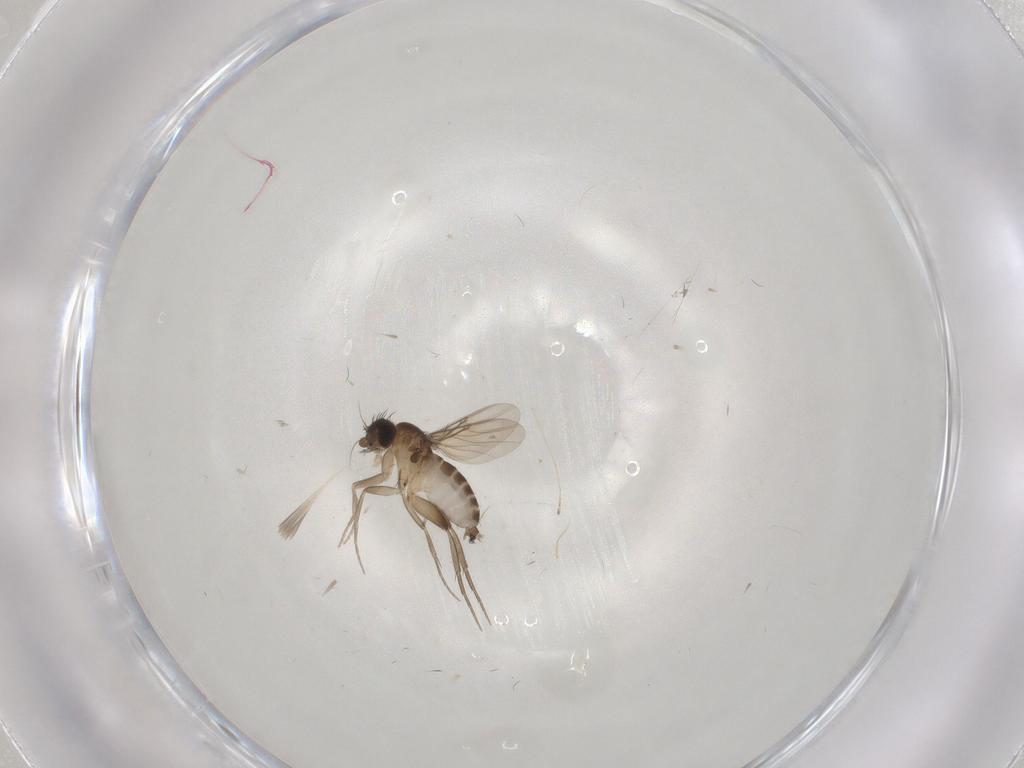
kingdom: Animalia
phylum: Arthropoda
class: Insecta
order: Diptera
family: Phoridae
